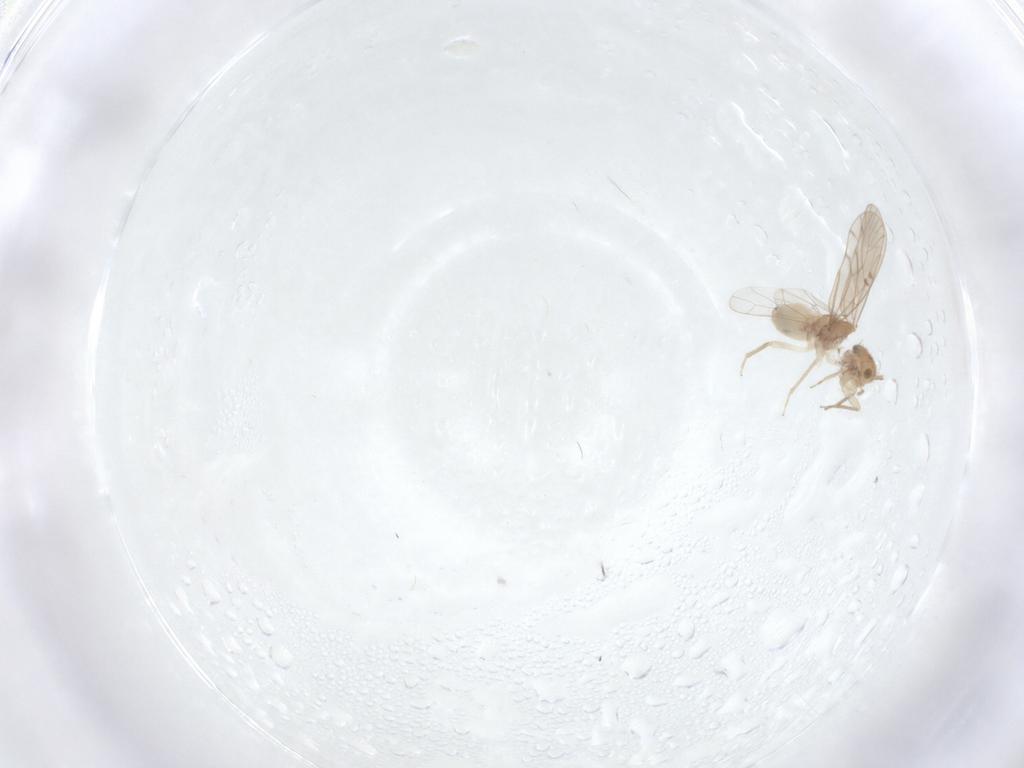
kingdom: Animalia
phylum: Arthropoda
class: Insecta
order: Psocodea
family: Ectopsocidae
